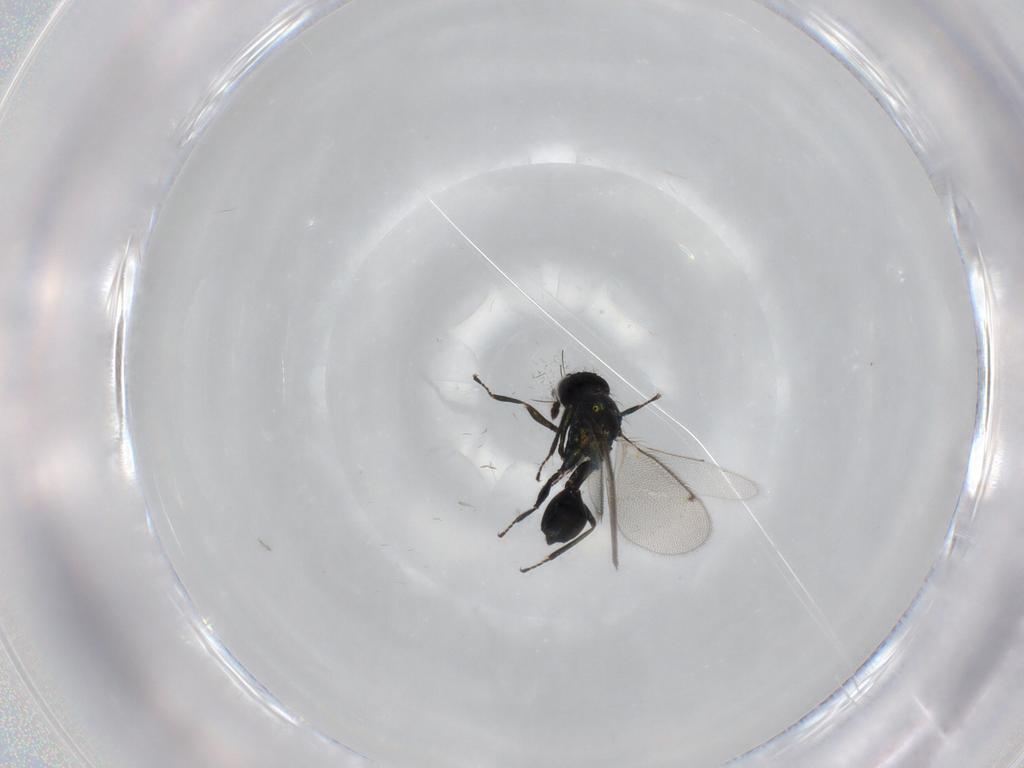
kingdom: Animalia
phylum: Arthropoda
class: Insecta
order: Hymenoptera
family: Eulophidae
